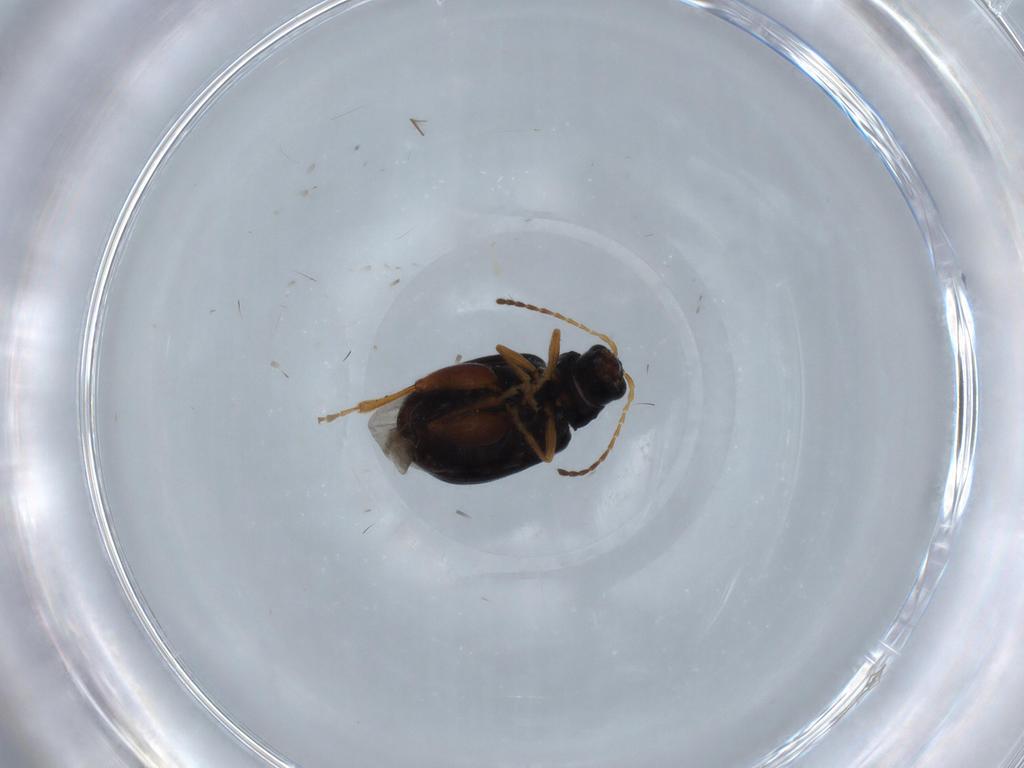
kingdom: Animalia
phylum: Arthropoda
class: Insecta
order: Coleoptera
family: Chrysomelidae
